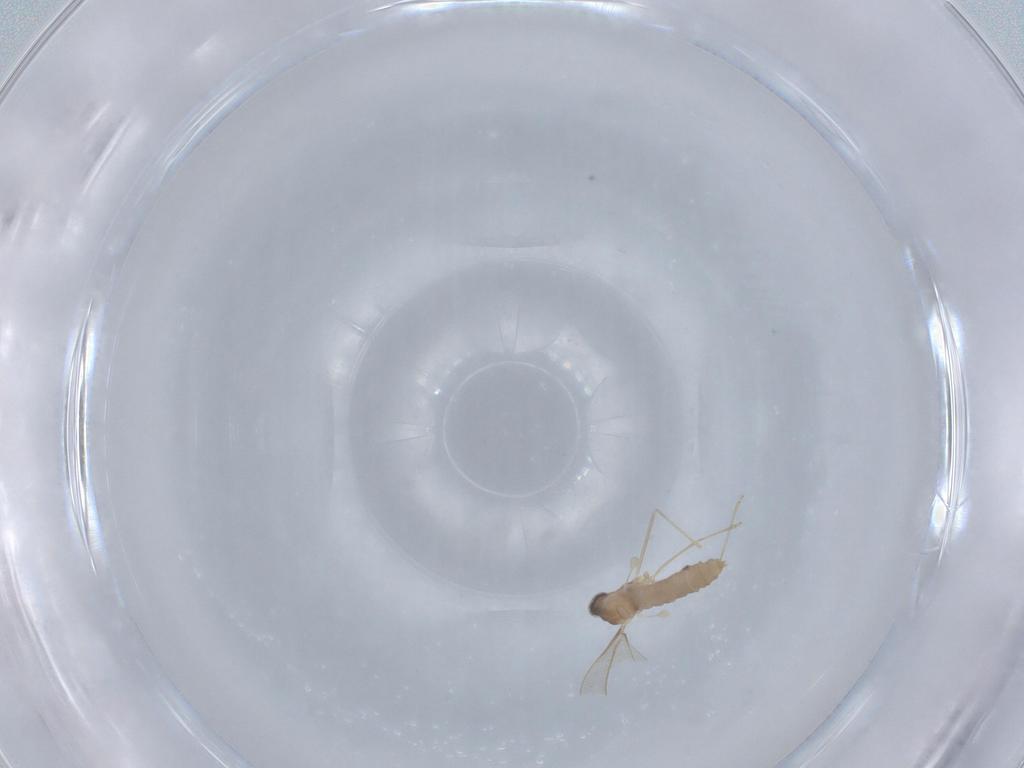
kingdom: Animalia
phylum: Arthropoda
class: Insecta
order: Diptera
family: Cecidomyiidae
